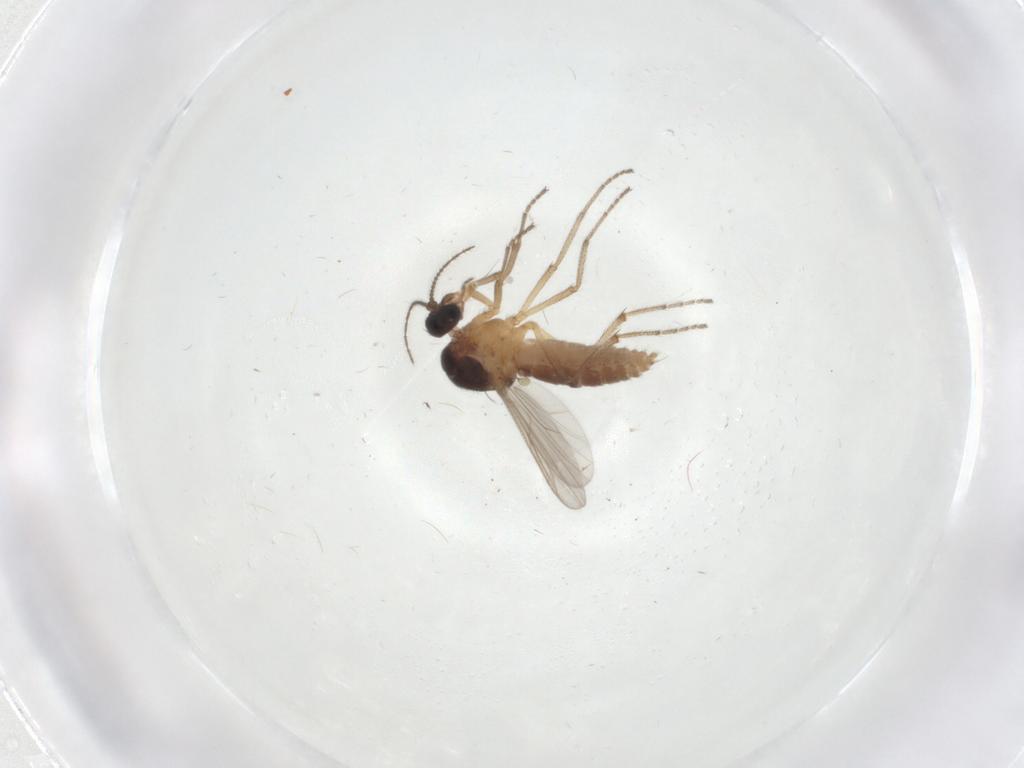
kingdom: Animalia
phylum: Arthropoda
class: Insecta
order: Diptera
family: Ceratopogonidae
